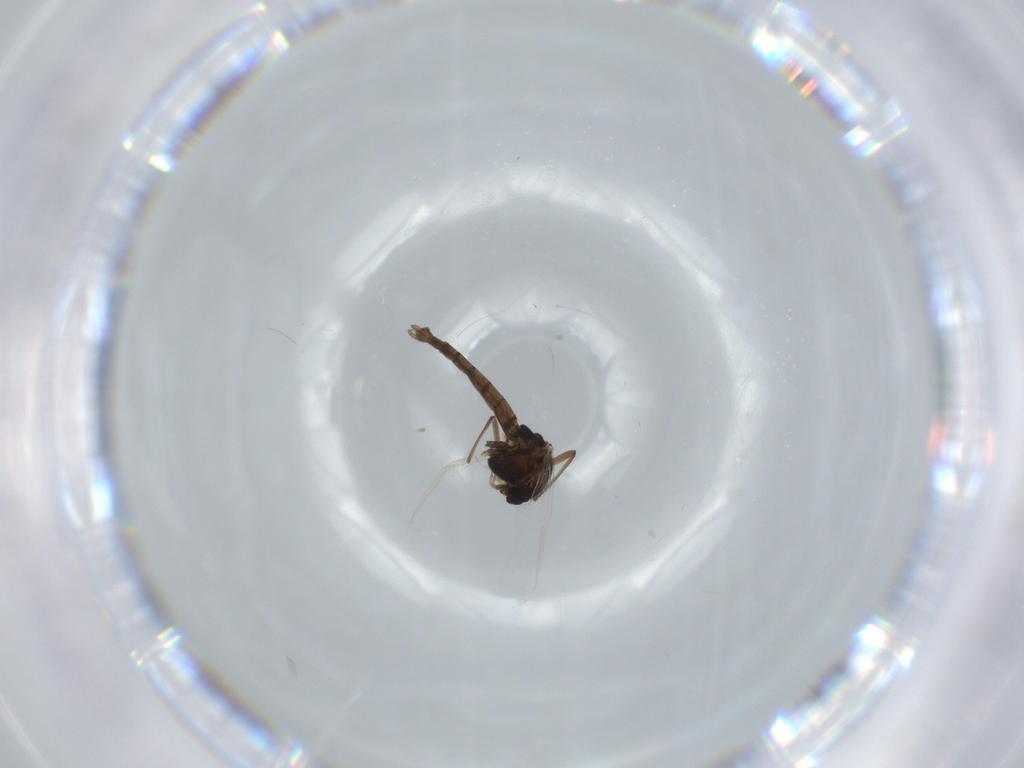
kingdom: Animalia
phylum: Arthropoda
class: Insecta
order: Diptera
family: Chironomidae
